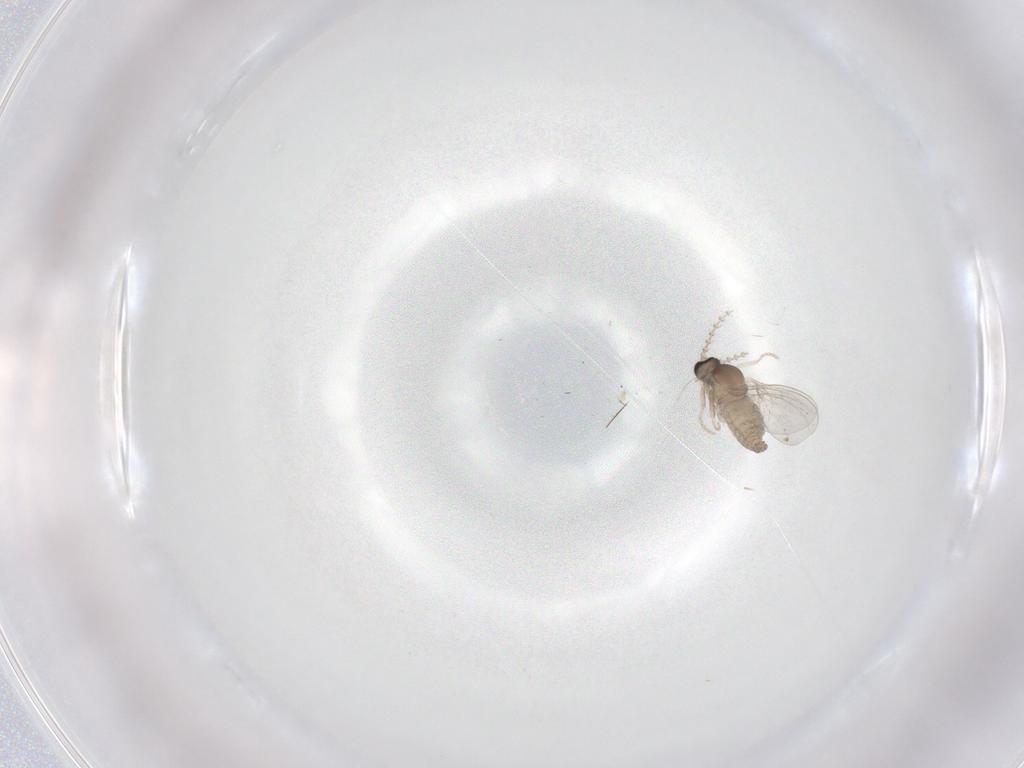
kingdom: Animalia
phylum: Arthropoda
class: Insecta
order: Diptera
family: Cecidomyiidae
